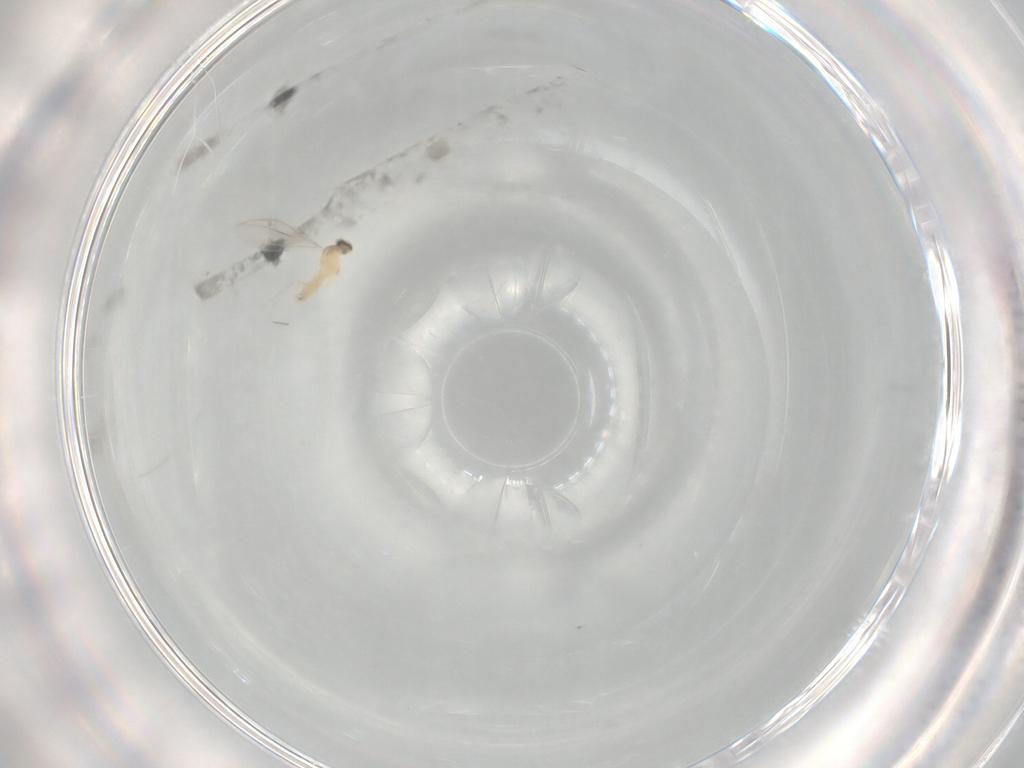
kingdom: Animalia
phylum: Arthropoda
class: Insecta
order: Diptera
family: Cecidomyiidae
